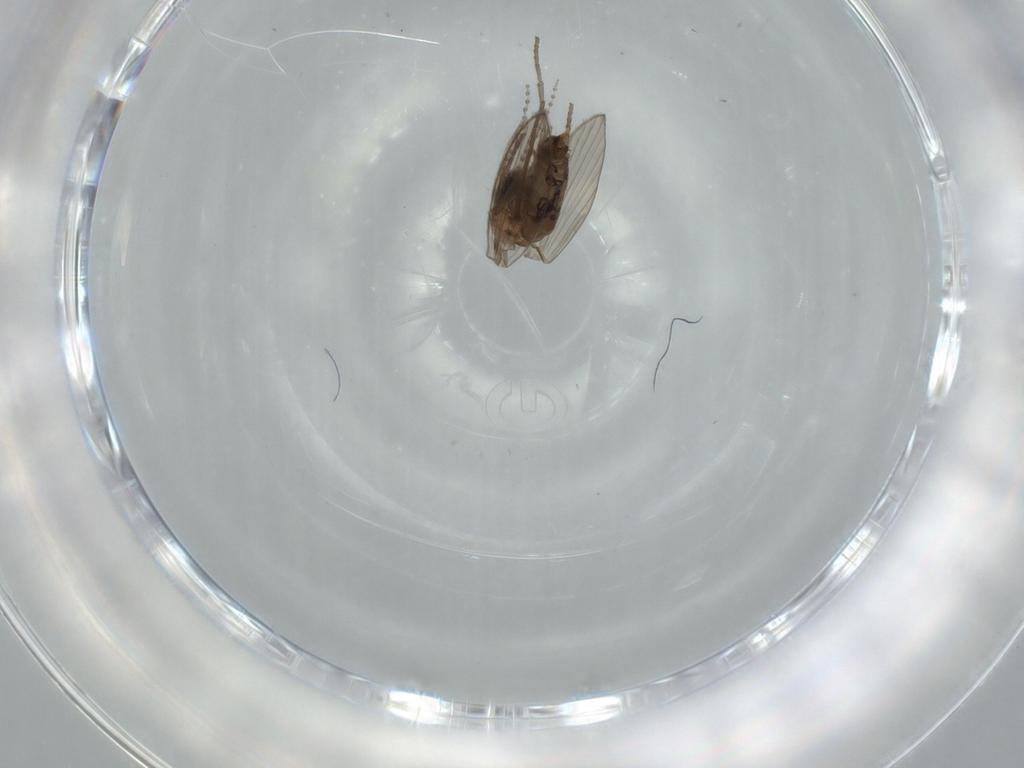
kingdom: Animalia
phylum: Arthropoda
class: Insecta
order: Diptera
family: Psychodidae
